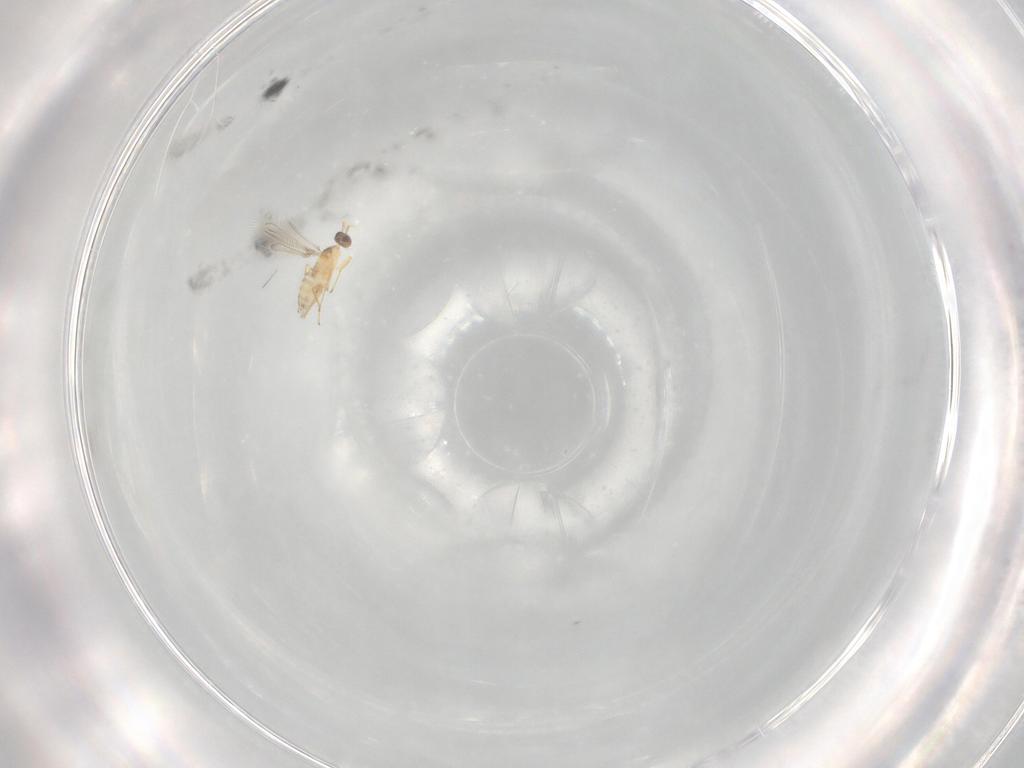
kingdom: Animalia
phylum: Arthropoda
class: Insecta
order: Hymenoptera
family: Mymaridae
